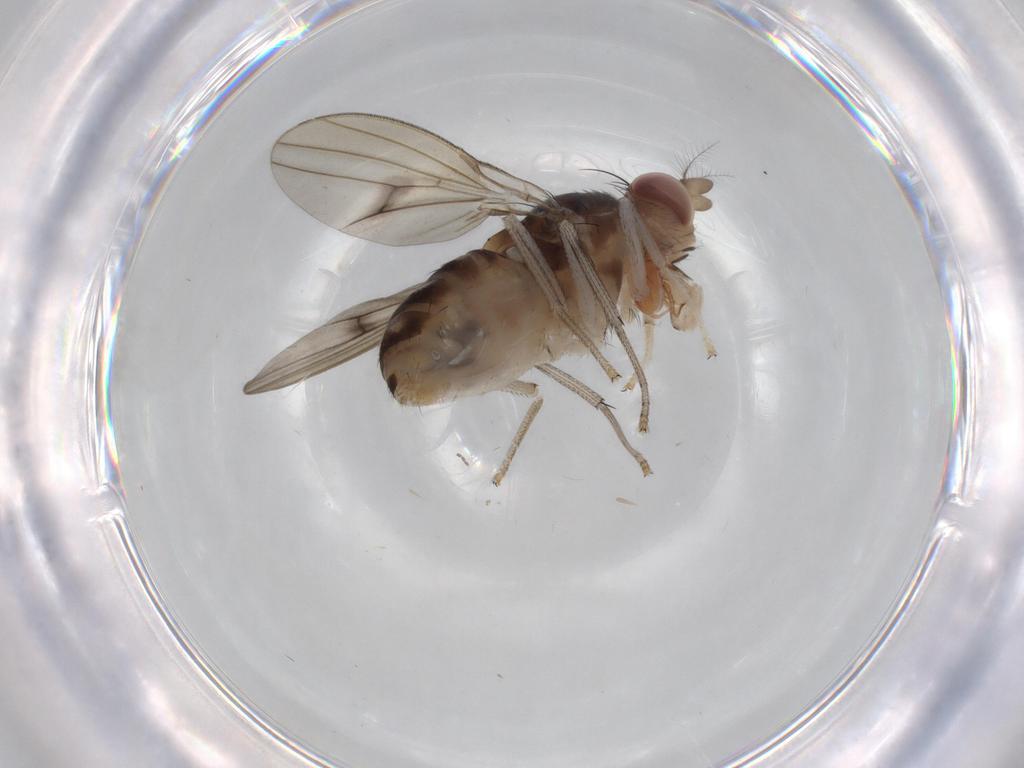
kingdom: Animalia
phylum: Arthropoda
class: Insecta
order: Diptera
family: Cecidomyiidae
